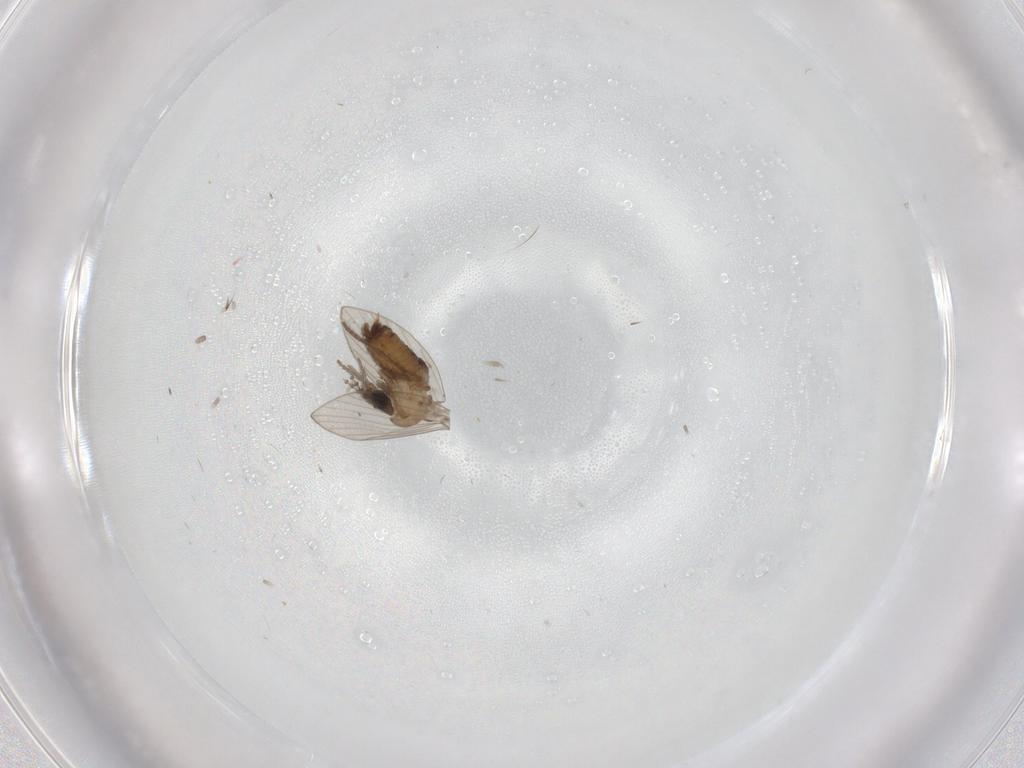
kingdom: Animalia
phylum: Arthropoda
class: Insecta
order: Diptera
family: Psychodidae
